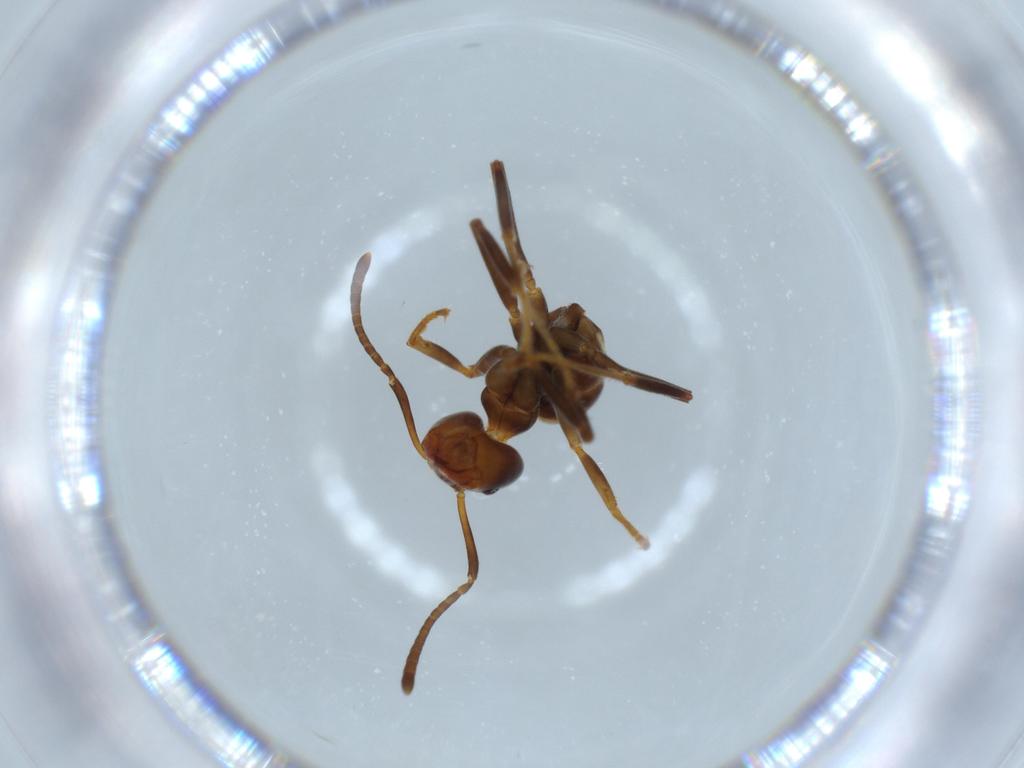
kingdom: Animalia
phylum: Arthropoda
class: Insecta
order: Hymenoptera
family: Formicidae
